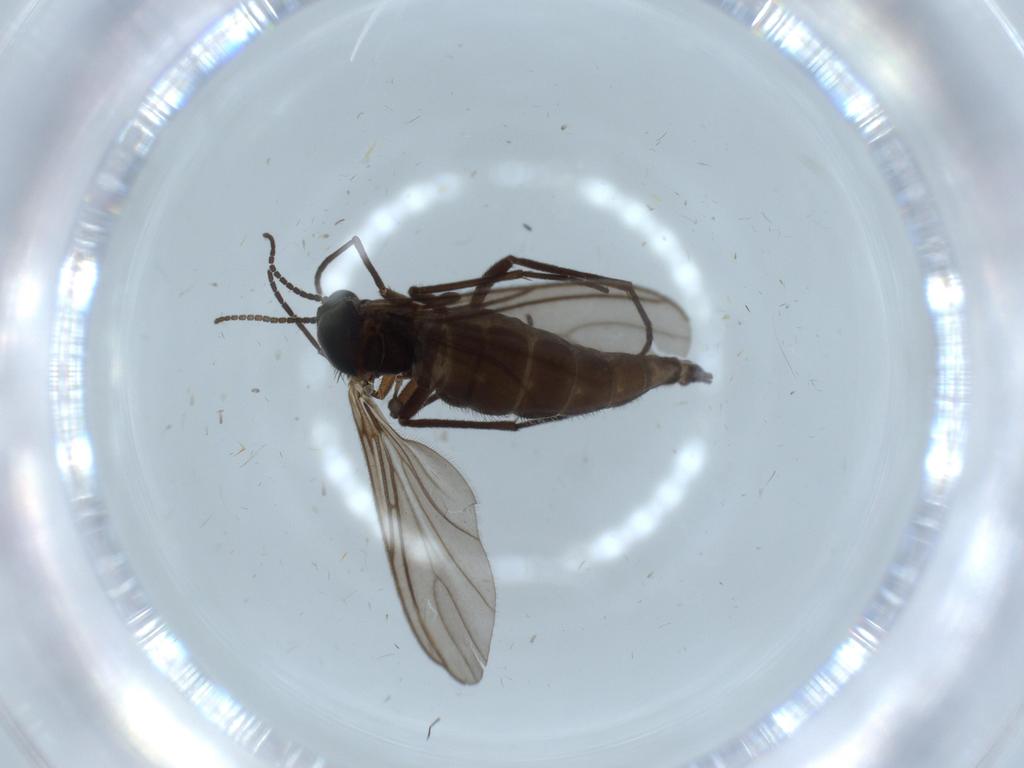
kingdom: Animalia
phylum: Arthropoda
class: Insecta
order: Diptera
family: Sciaridae
